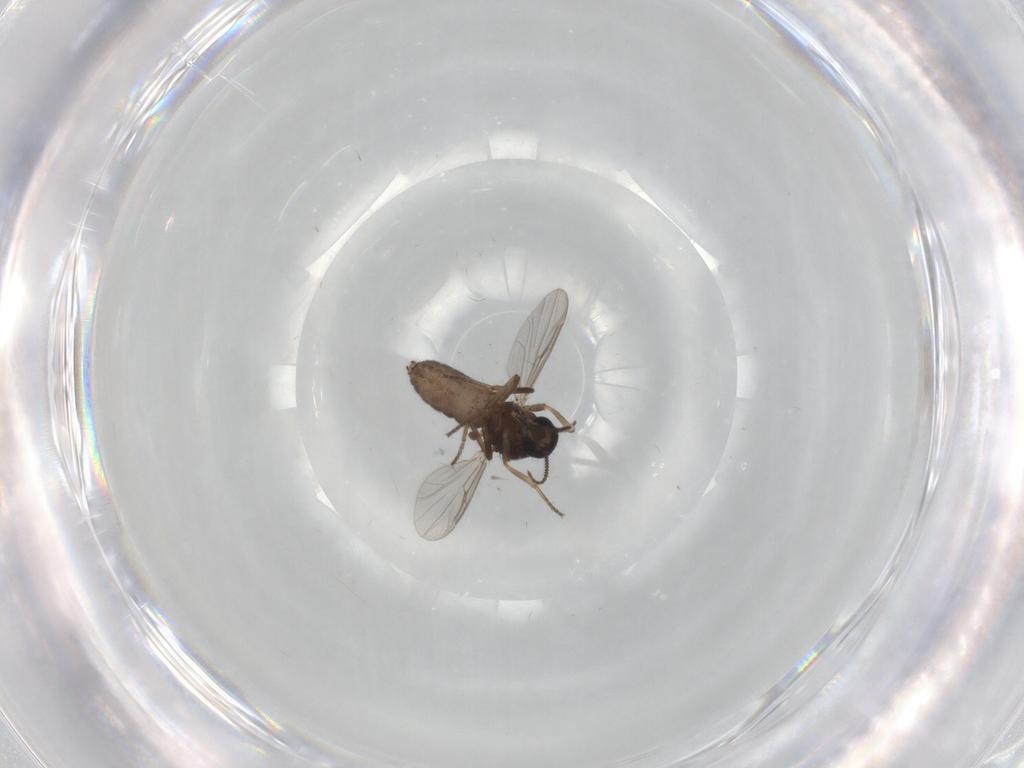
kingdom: Animalia
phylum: Arthropoda
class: Insecta
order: Diptera
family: Ceratopogonidae
